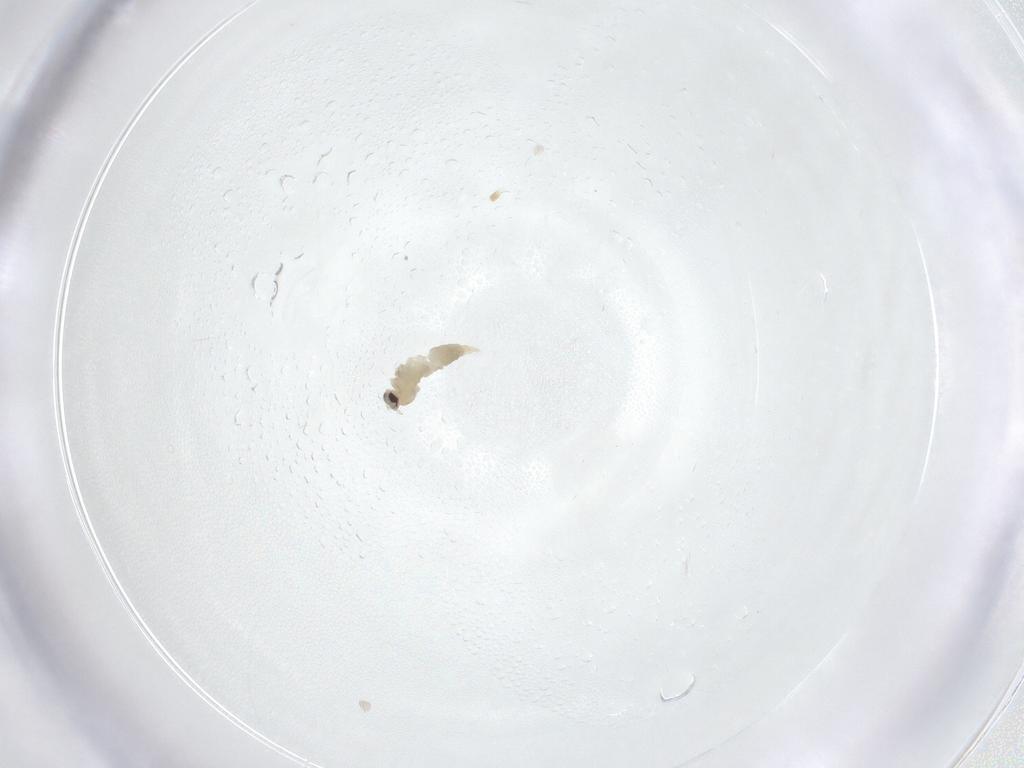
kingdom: Animalia
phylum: Arthropoda
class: Insecta
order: Diptera
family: Cecidomyiidae
